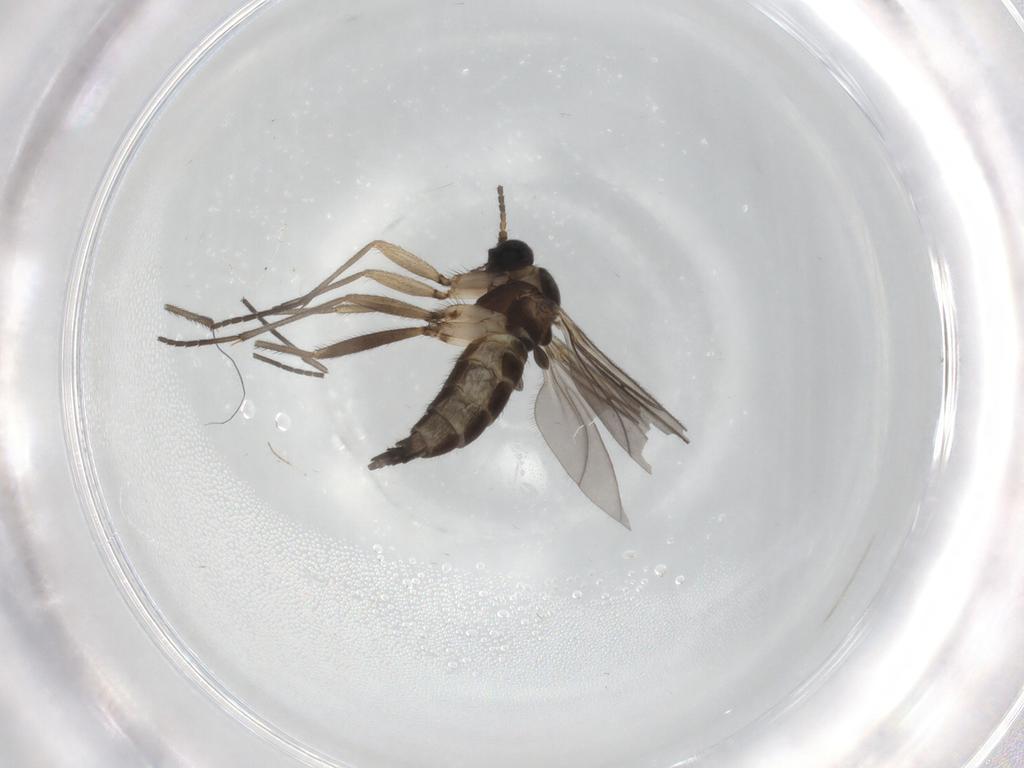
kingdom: Animalia
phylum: Arthropoda
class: Insecta
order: Diptera
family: Sciaridae
